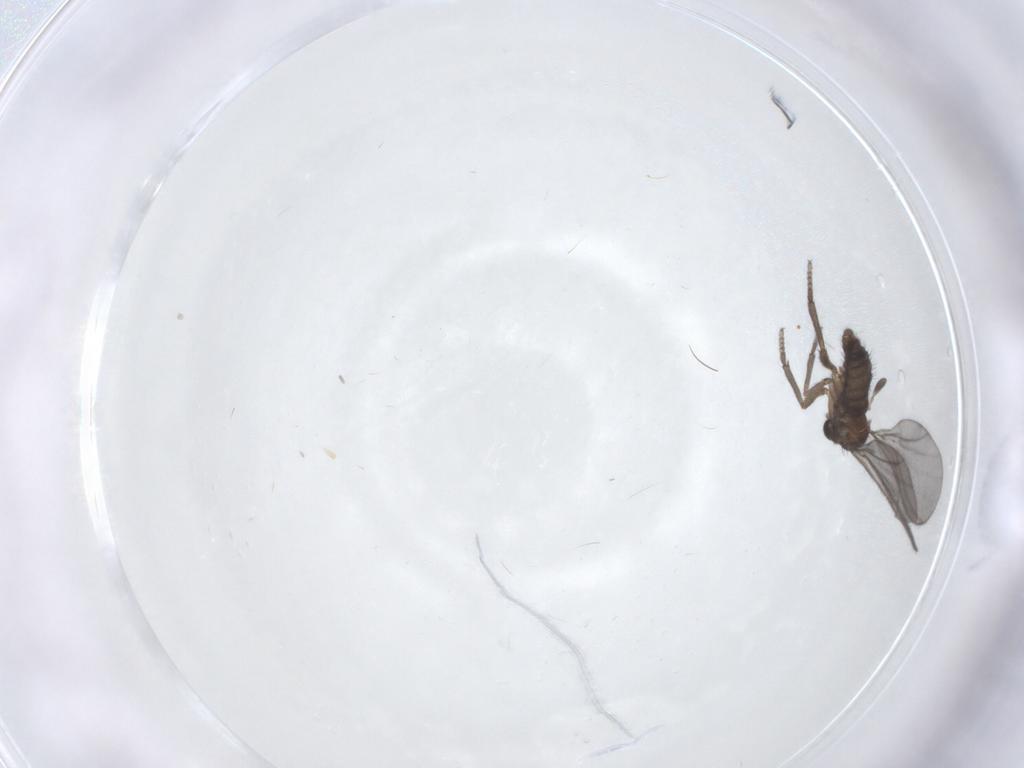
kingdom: Animalia
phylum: Arthropoda
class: Insecta
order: Diptera
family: Sciaridae
